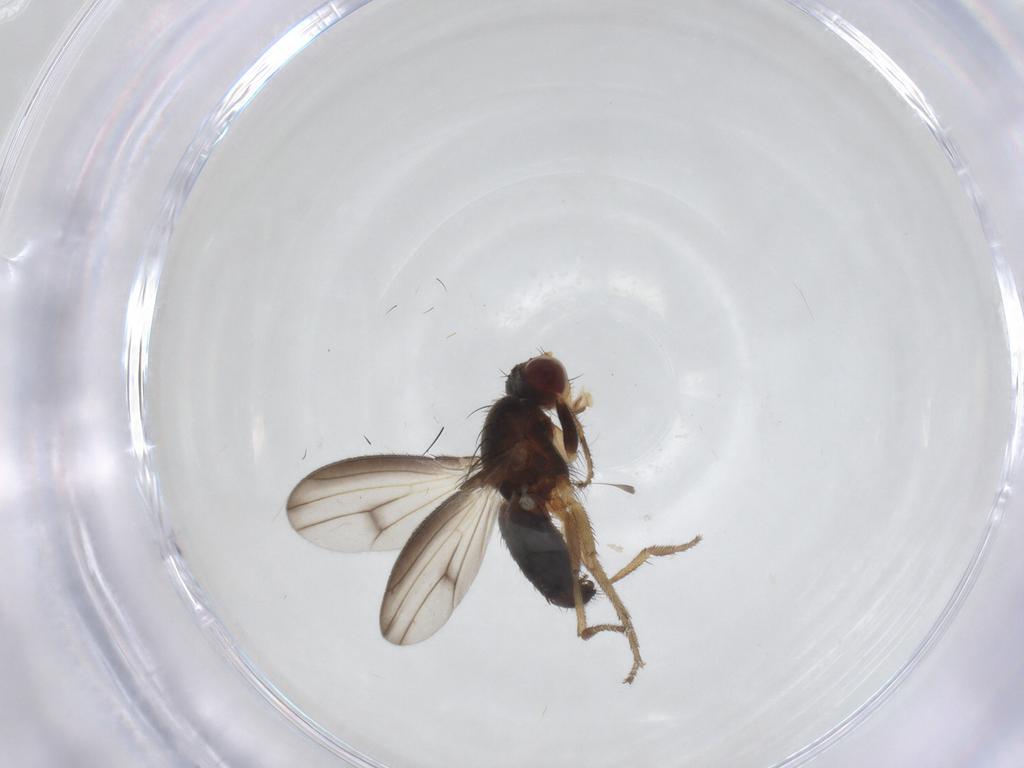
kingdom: Animalia
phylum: Arthropoda
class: Insecta
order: Diptera
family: Heleomyzidae
